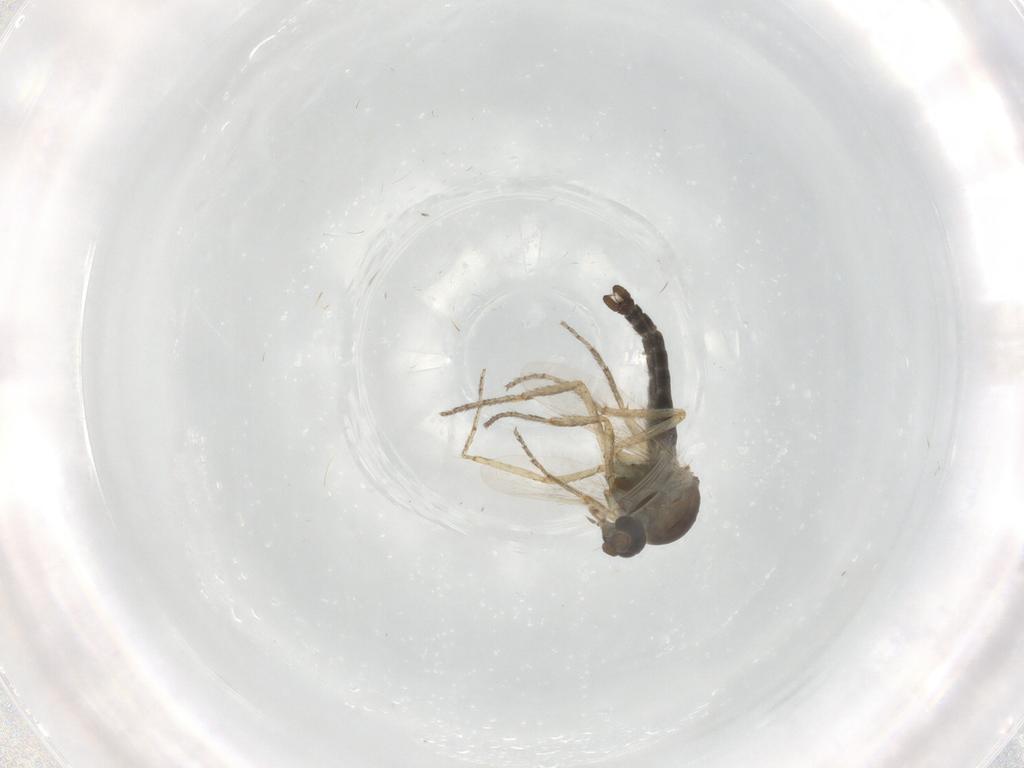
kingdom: Animalia
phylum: Arthropoda
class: Insecta
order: Diptera
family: Ceratopogonidae
